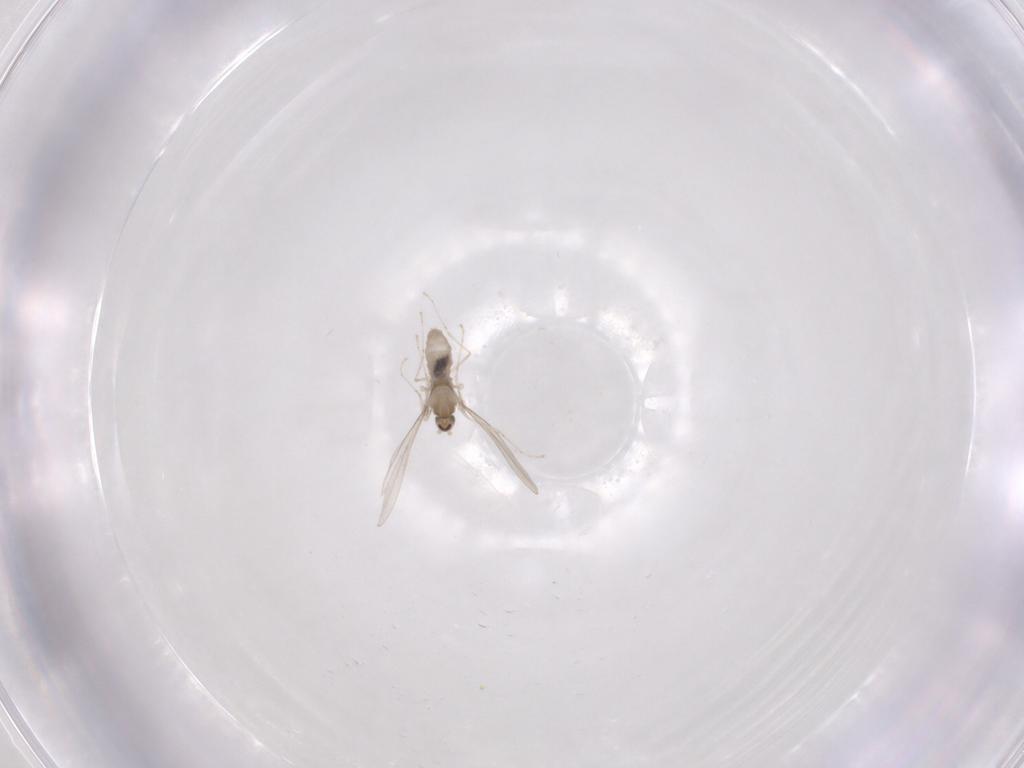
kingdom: Animalia
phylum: Arthropoda
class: Insecta
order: Diptera
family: Cecidomyiidae
